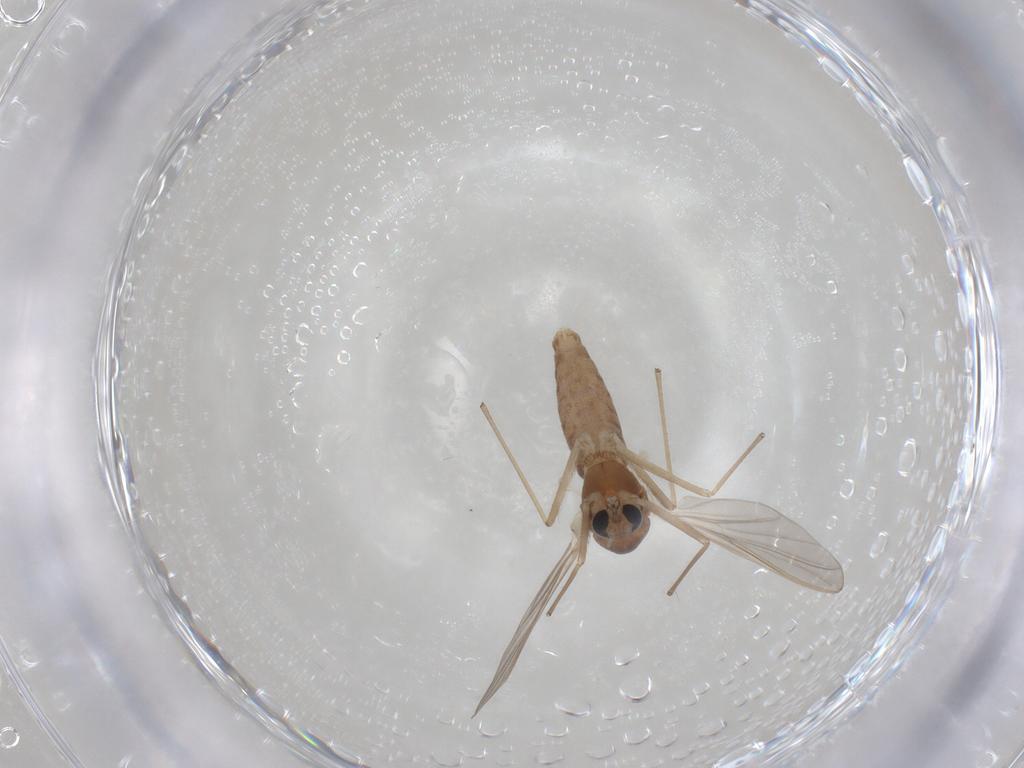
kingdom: Animalia
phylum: Arthropoda
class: Insecta
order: Diptera
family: Chironomidae
